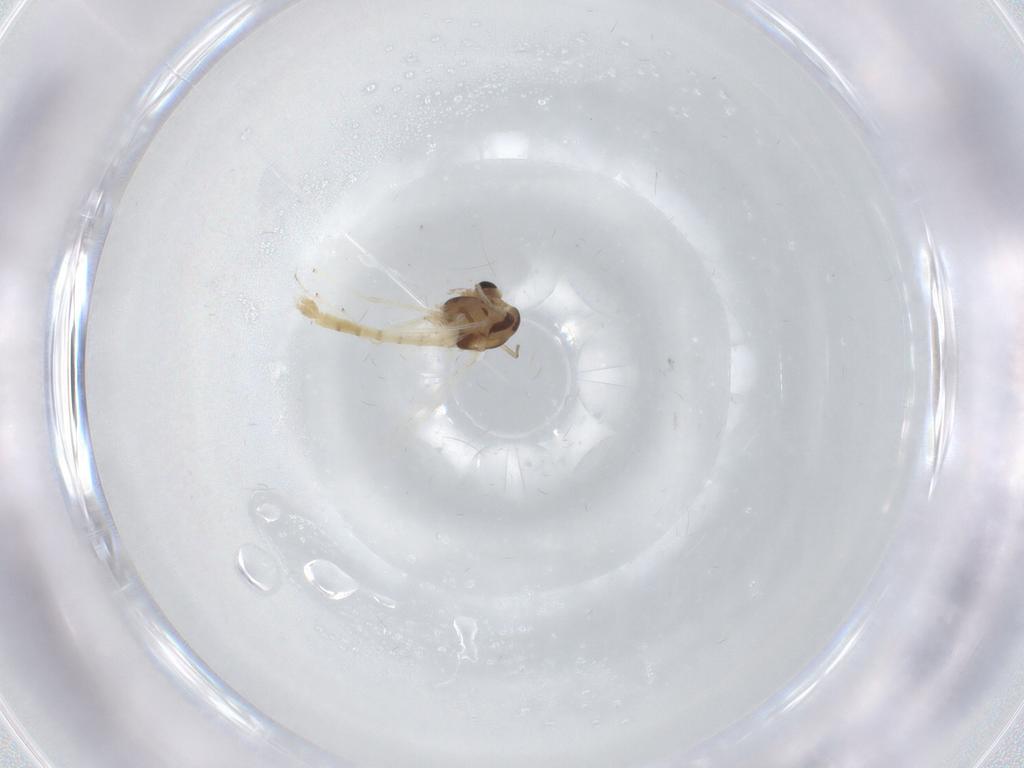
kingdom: Animalia
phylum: Arthropoda
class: Insecta
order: Diptera
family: Chironomidae
